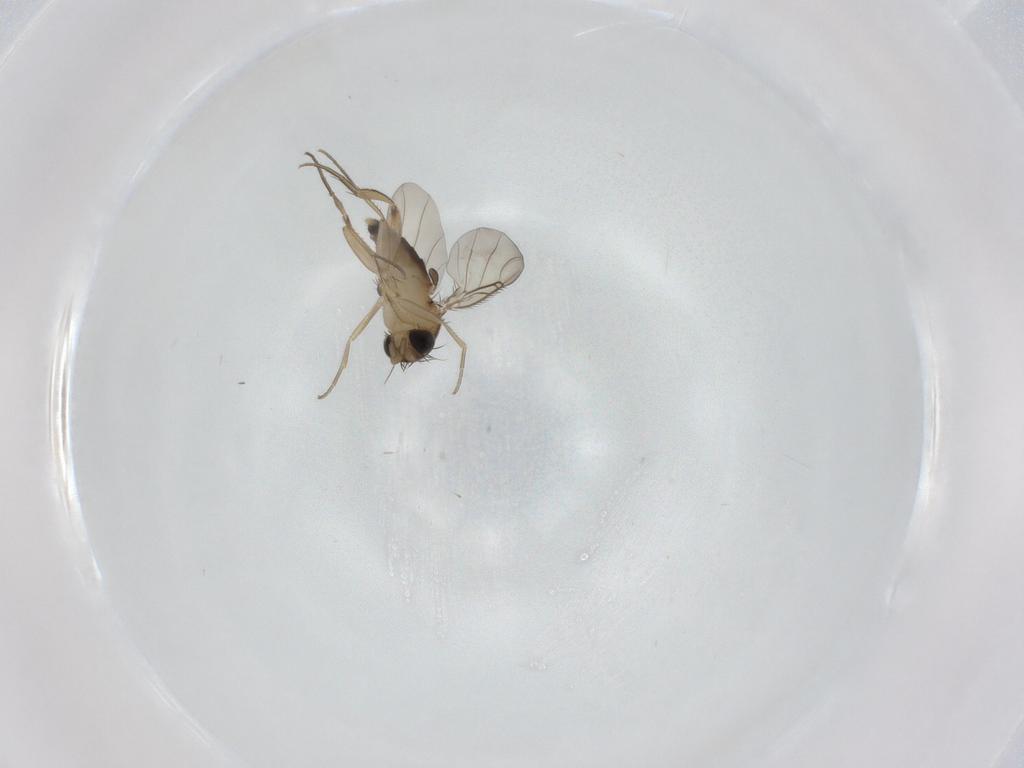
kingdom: Animalia
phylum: Arthropoda
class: Insecta
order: Diptera
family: Phoridae
